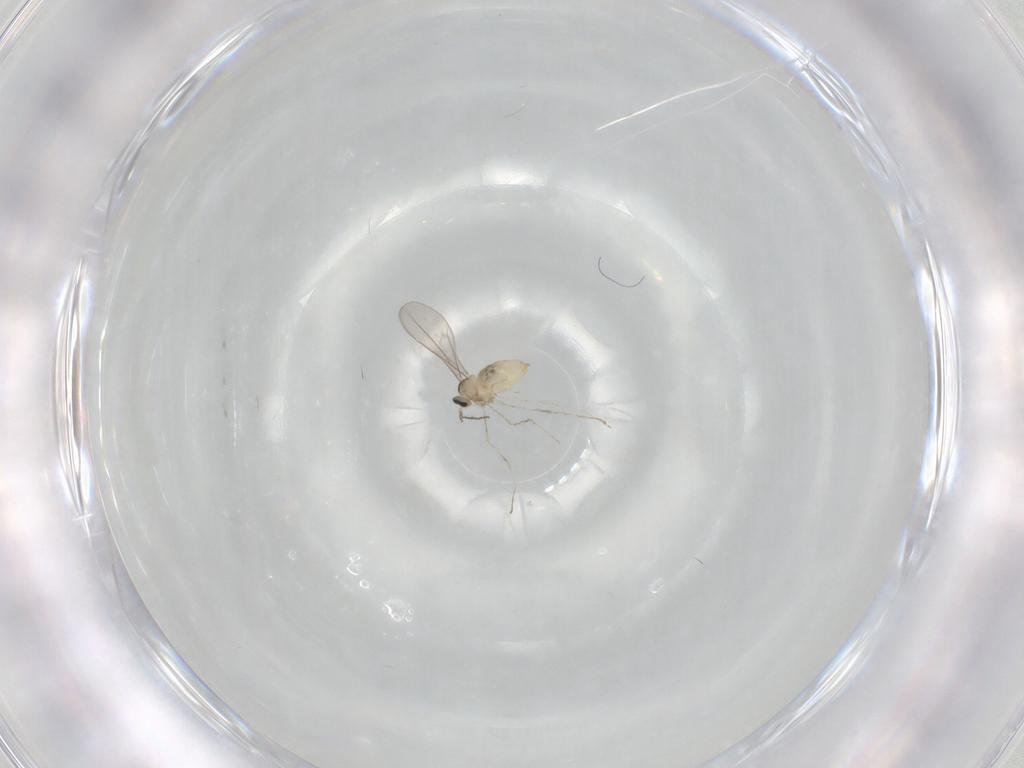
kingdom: Animalia
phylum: Arthropoda
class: Insecta
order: Diptera
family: Cecidomyiidae
